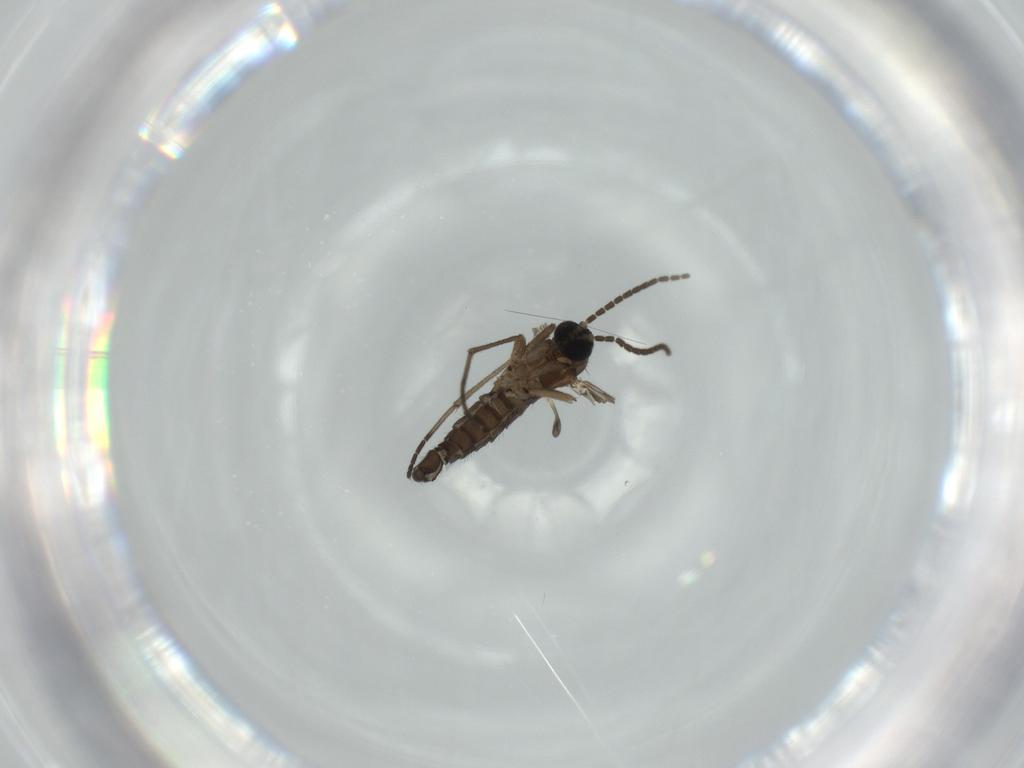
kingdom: Animalia
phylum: Arthropoda
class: Insecta
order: Diptera
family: Sciaridae
